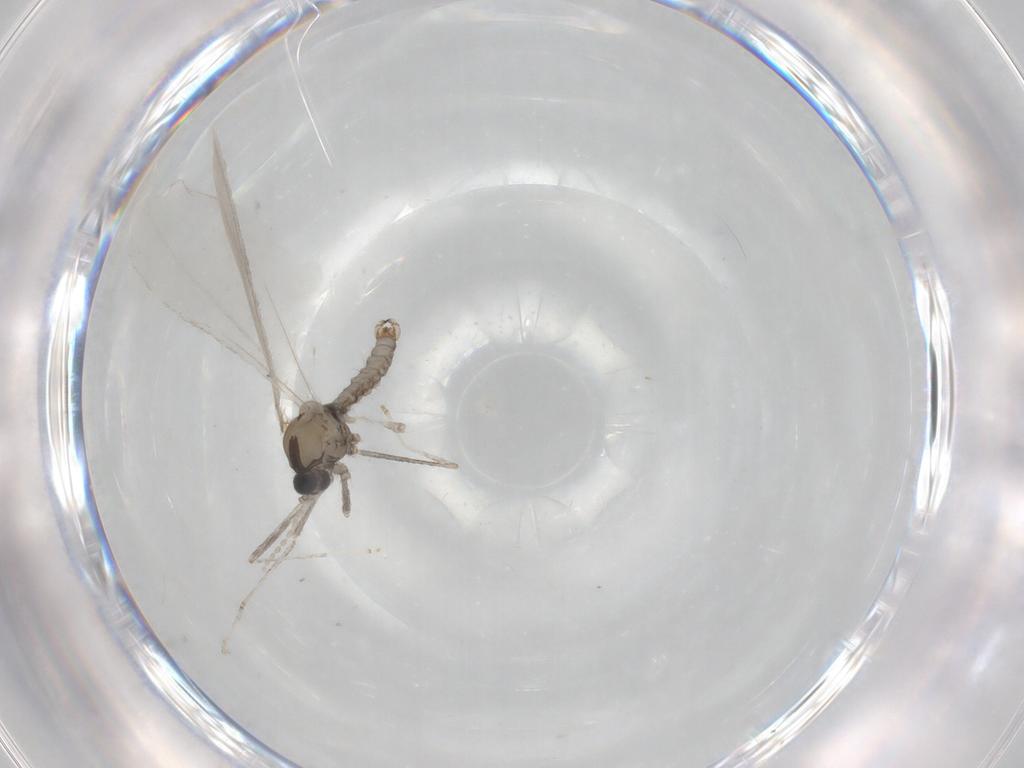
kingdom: Animalia
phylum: Arthropoda
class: Insecta
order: Diptera
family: Cecidomyiidae
